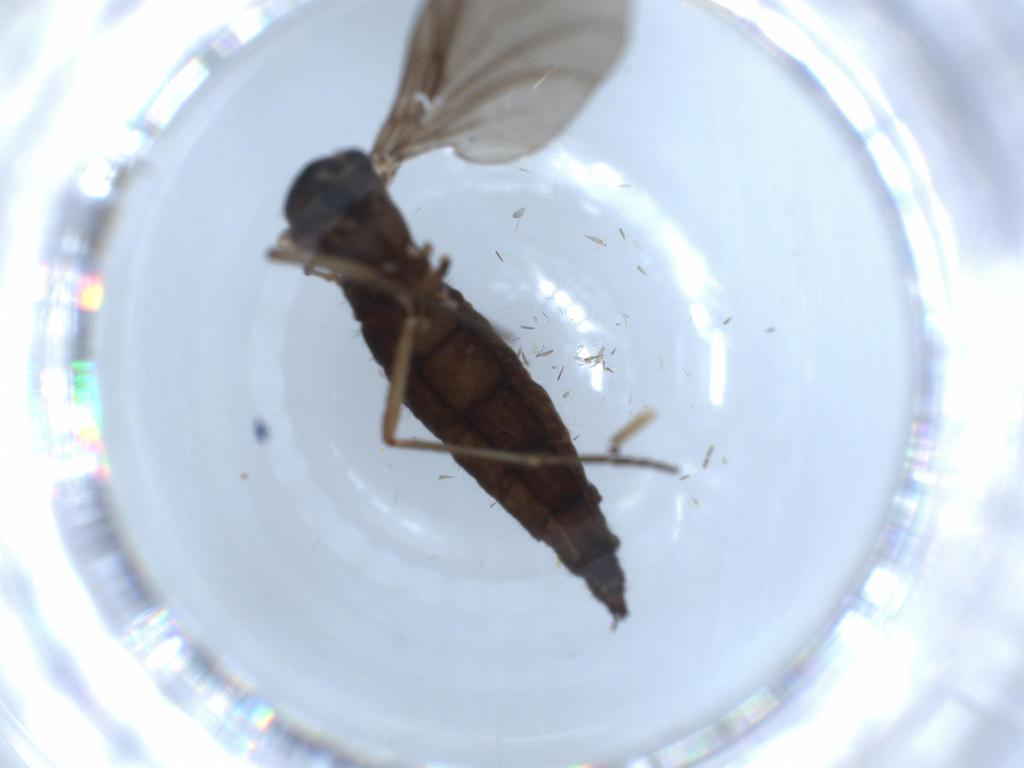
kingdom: Animalia
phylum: Arthropoda
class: Insecta
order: Diptera
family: Sciaridae
